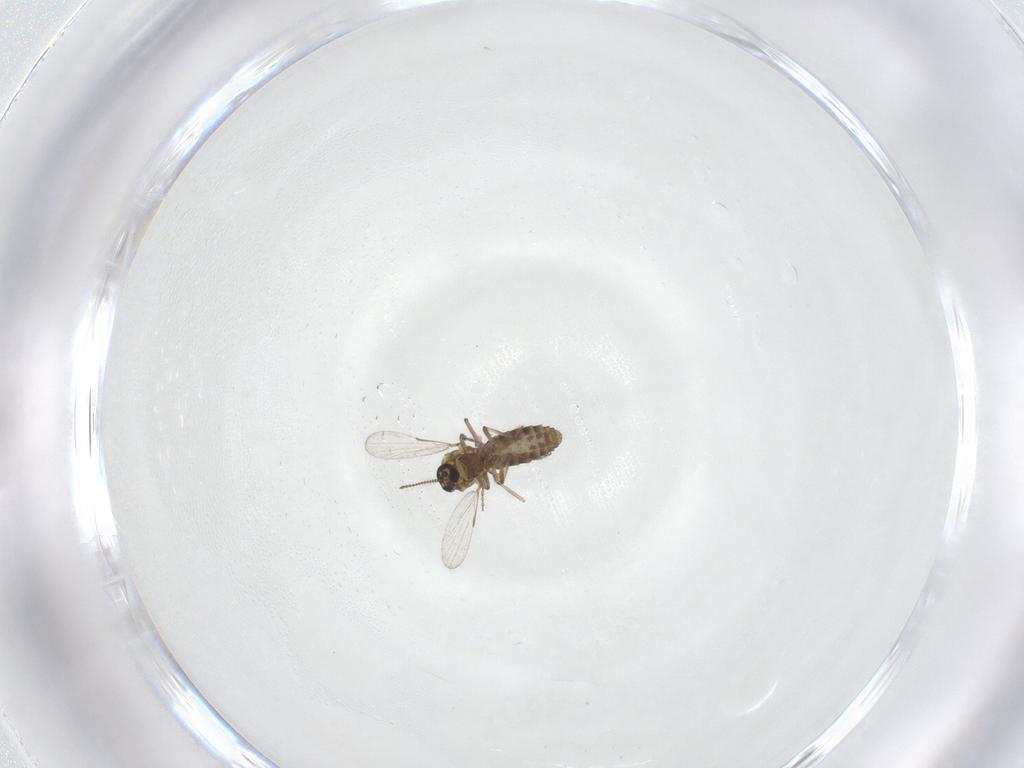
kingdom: Animalia
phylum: Arthropoda
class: Insecta
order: Diptera
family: Ceratopogonidae
